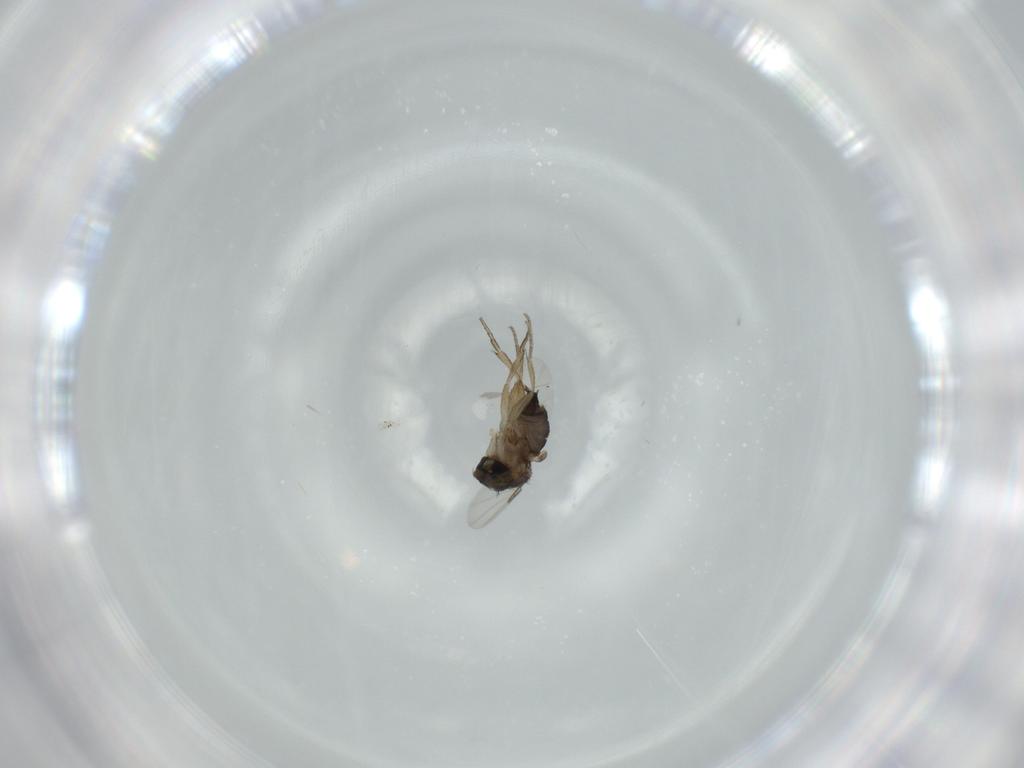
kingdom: Animalia
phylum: Arthropoda
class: Insecta
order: Diptera
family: Phoridae
